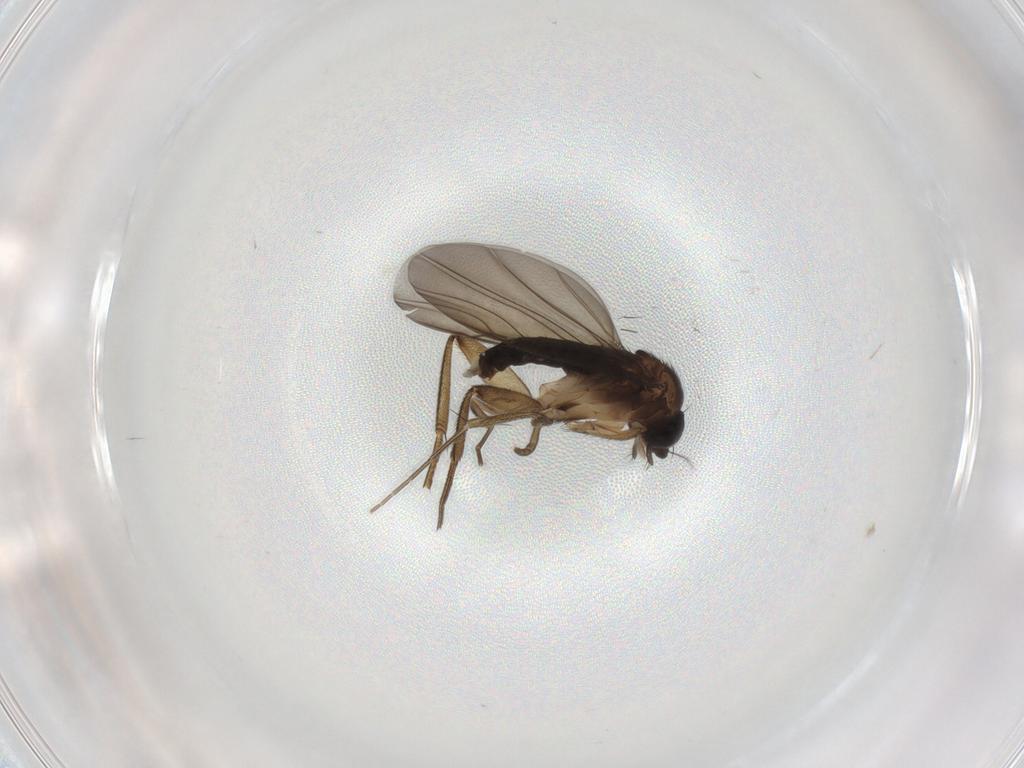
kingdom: Animalia
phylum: Arthropoda
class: Insecta
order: Diptera
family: Phoridae
